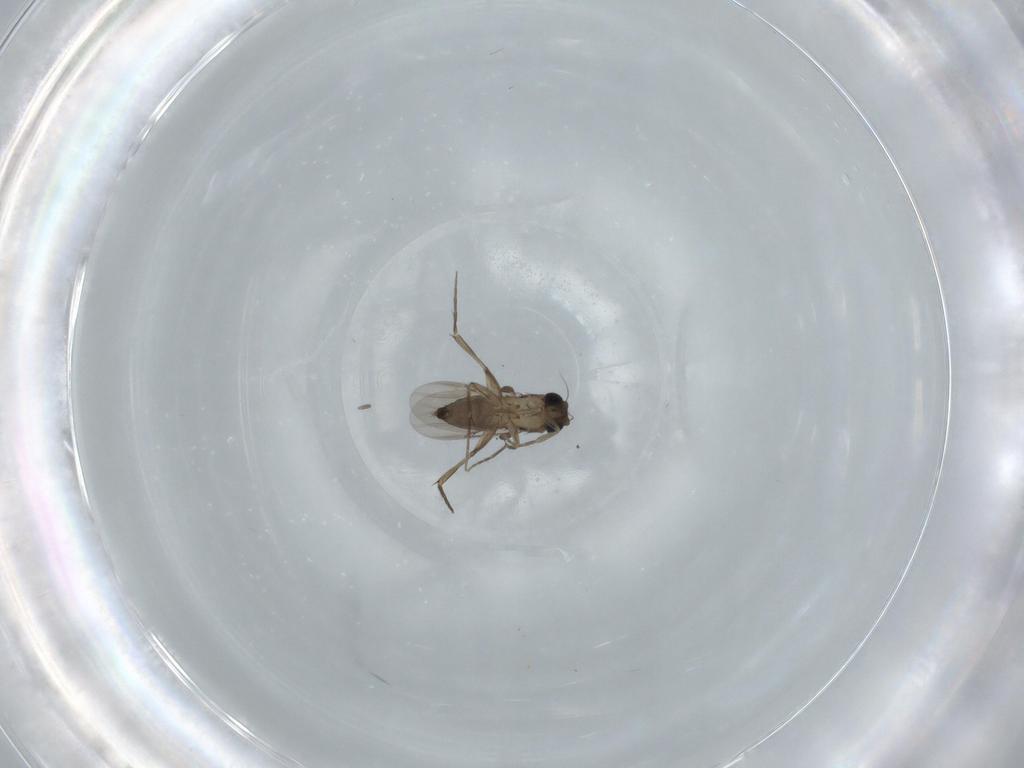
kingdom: Animalia
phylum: Arthropoda
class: Insecta
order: Diptera
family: Phoridae
